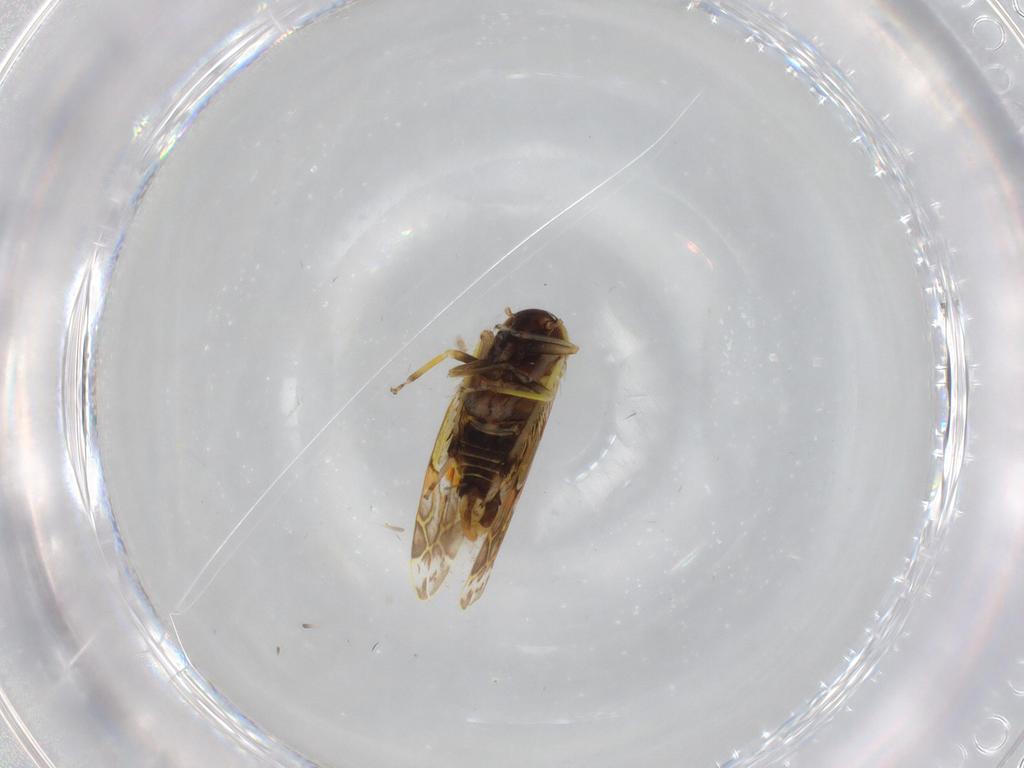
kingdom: Animalia
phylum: Arthropoda
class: Insecta
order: Hemiptera
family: Cicadellidae
